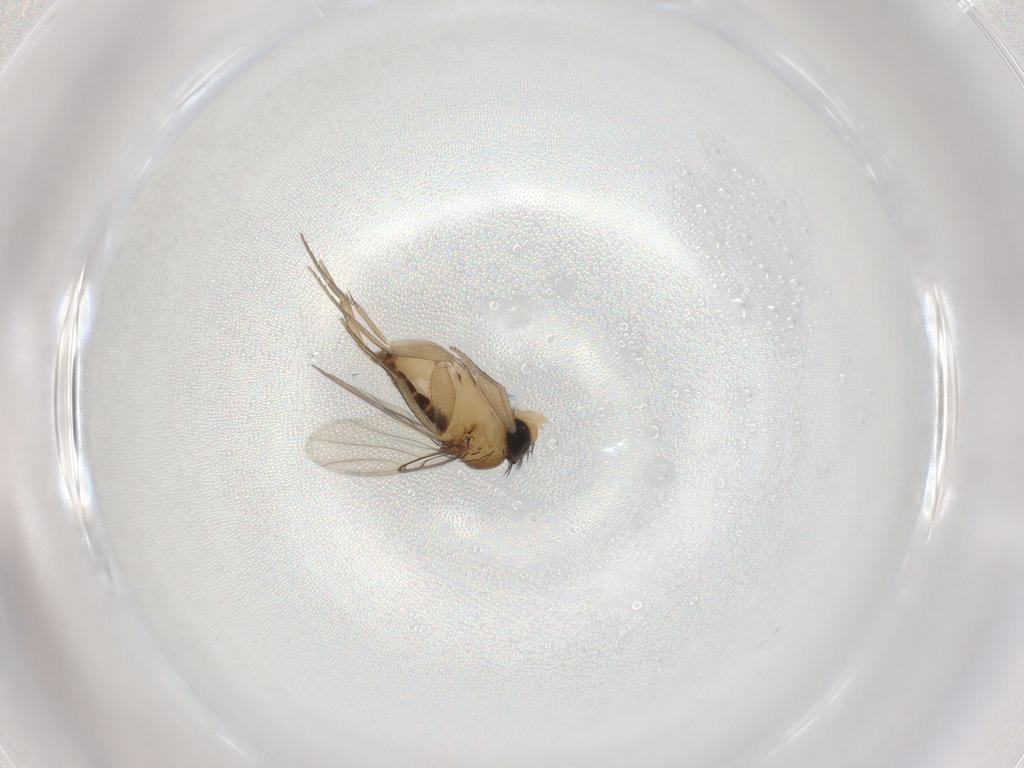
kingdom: Animalia
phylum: Arthropoda
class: Insecta
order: Diptera
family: Phoridae
